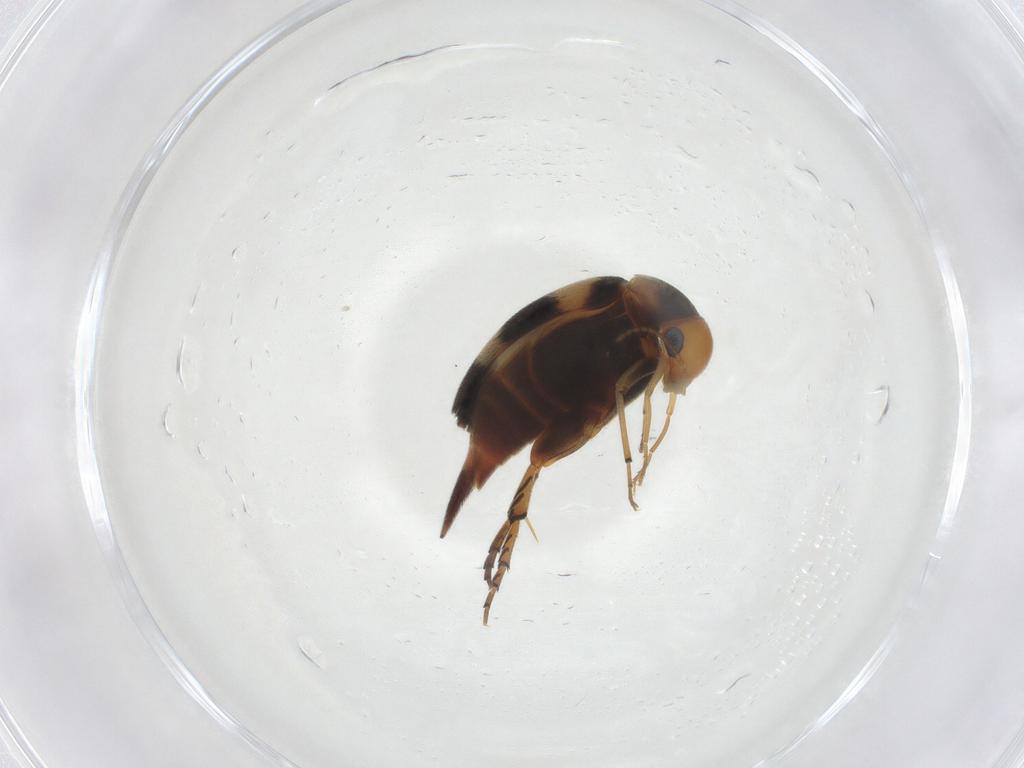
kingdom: Animalia
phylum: Arthropoda
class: Insecta
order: Coleoptera
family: Mordellidae
